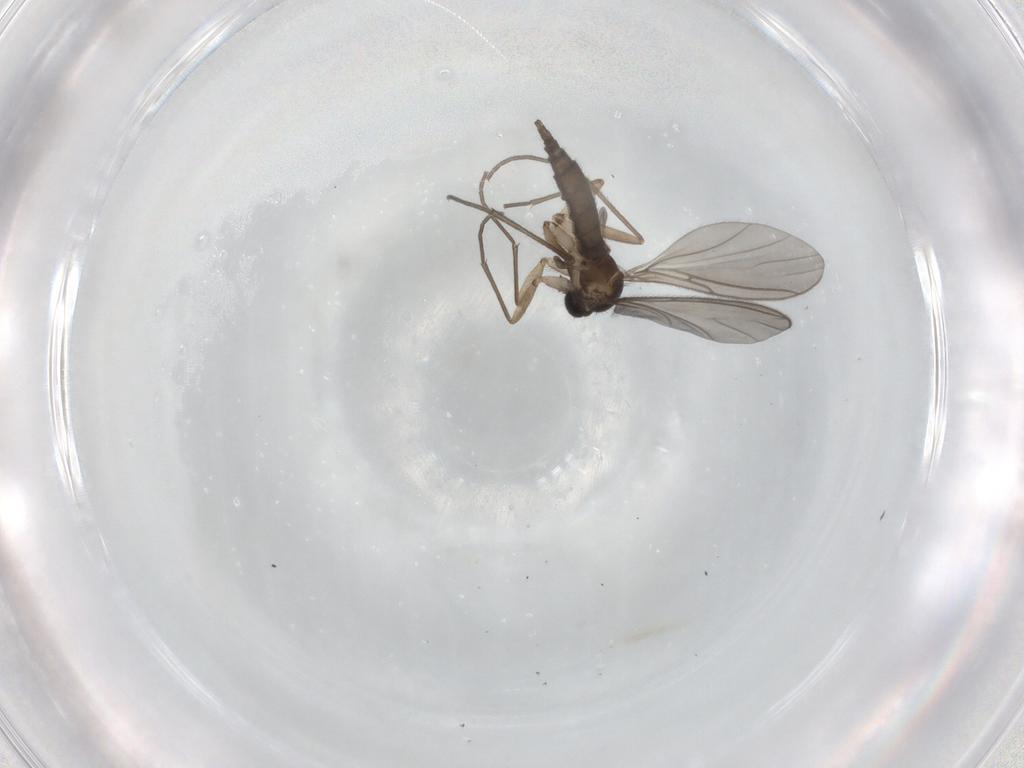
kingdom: Animalia
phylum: Arthropoda
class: Insecta
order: Diptera
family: Sciaridae
